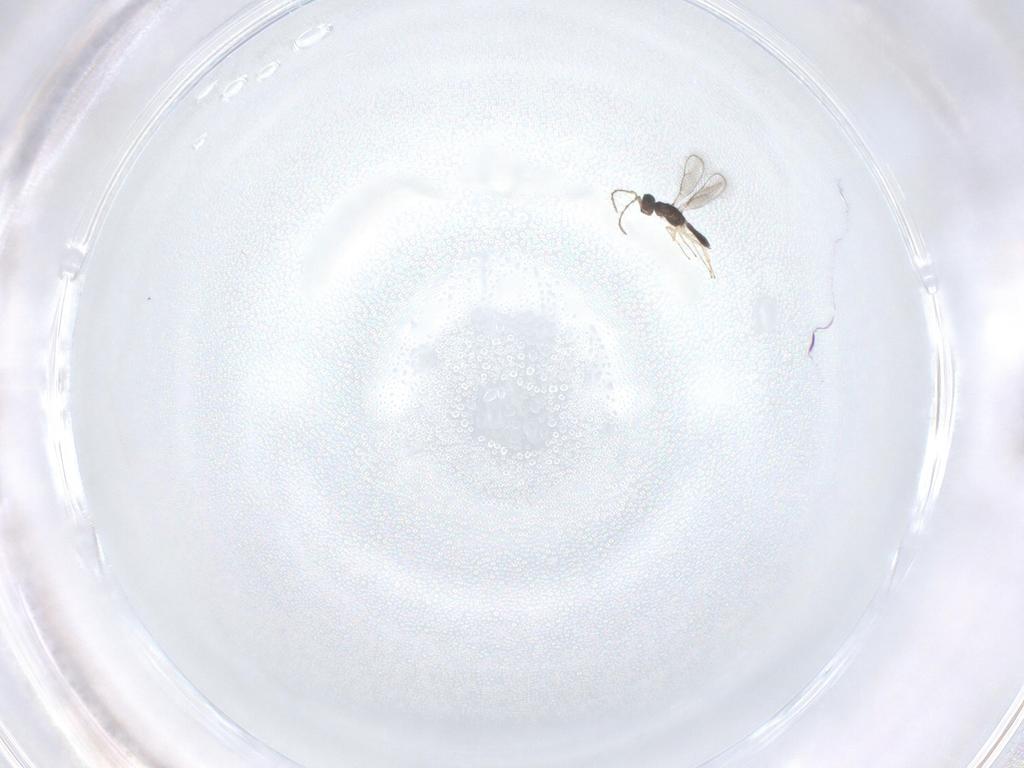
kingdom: Animalia
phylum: Arthropoda
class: Insecta
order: Hymenoptera
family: Pteromalidae
